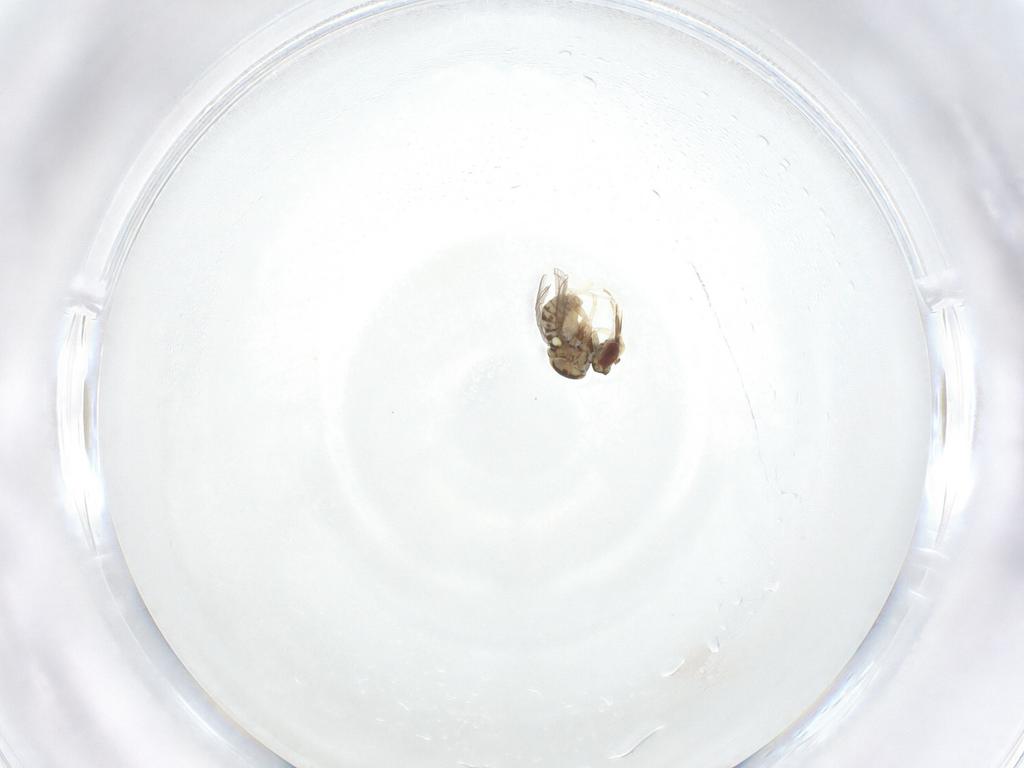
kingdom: Animalia
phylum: Arthropoda
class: Insecta
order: Diptera
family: Bombyliidae
